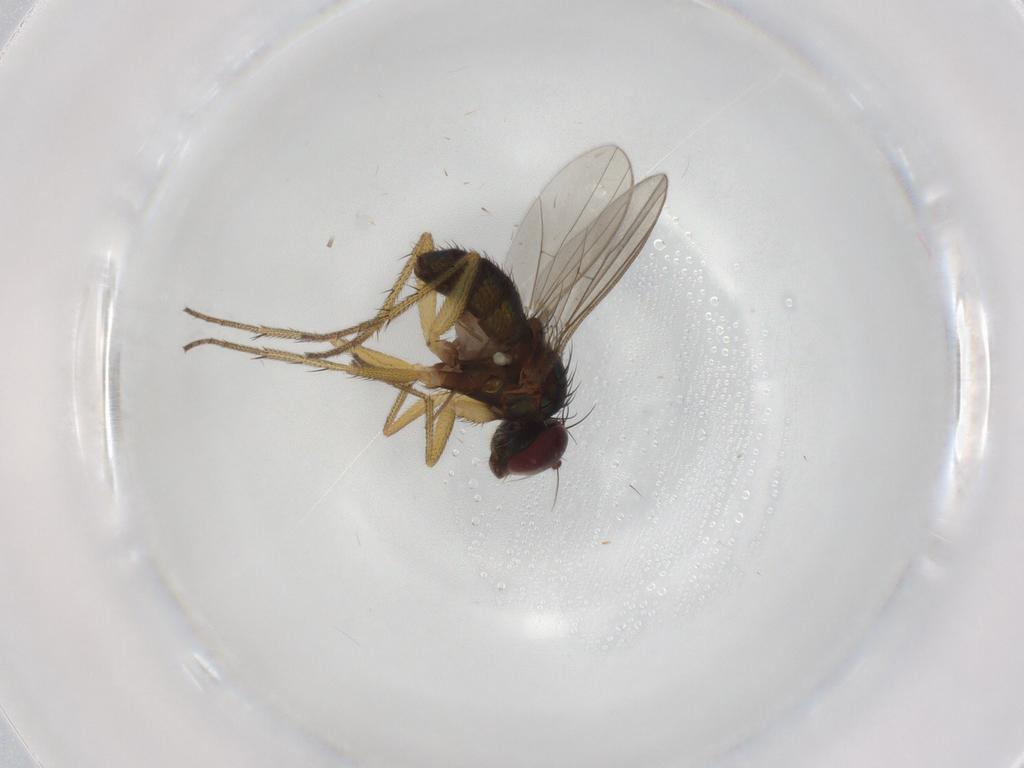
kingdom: Animalia
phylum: Arthropoda
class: Insecta
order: Diptera
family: Dolichopodidae
